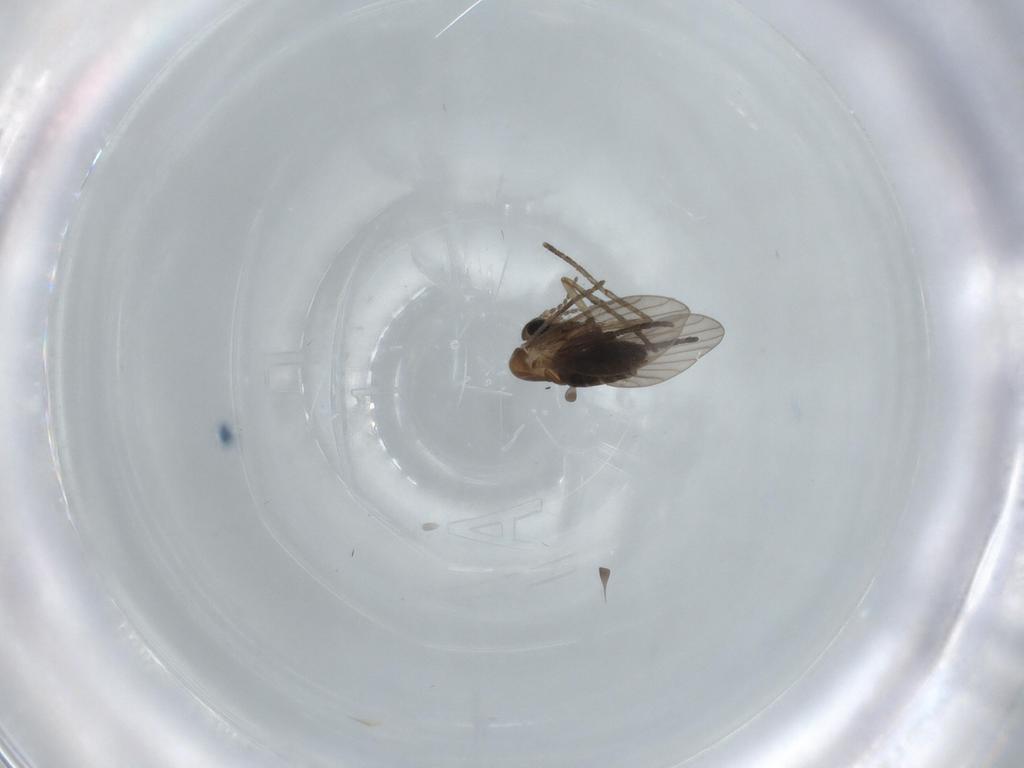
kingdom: Animalia
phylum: Arthropoda
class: Insecta
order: Diptera
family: Psychodidae
